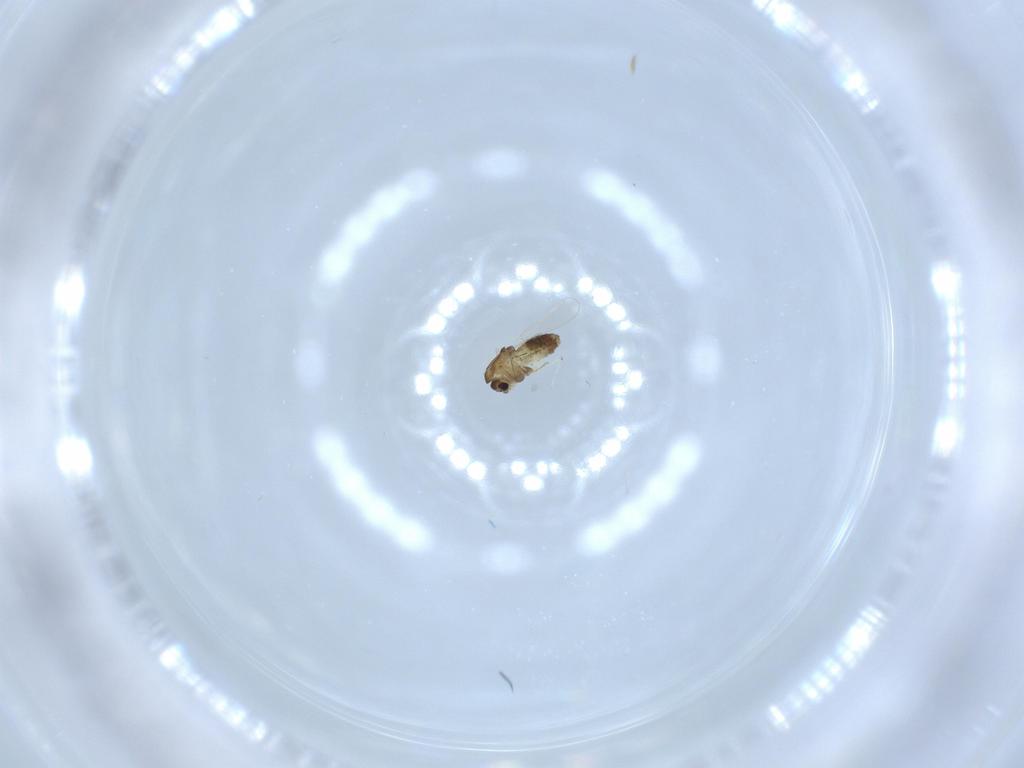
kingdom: Animalia
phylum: Arthropoda
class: Insecta
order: Diptera
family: Chironomidae
